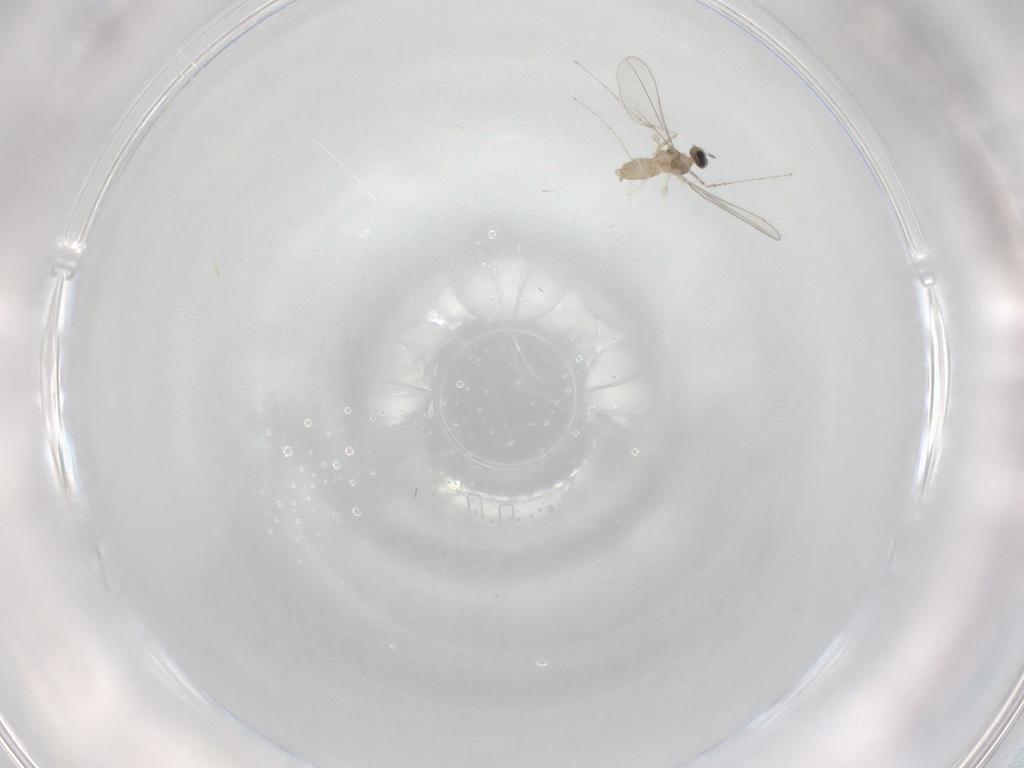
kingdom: Animalia
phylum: Arthropoda
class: Insecta
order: Diptera
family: Cecidomyiidae
